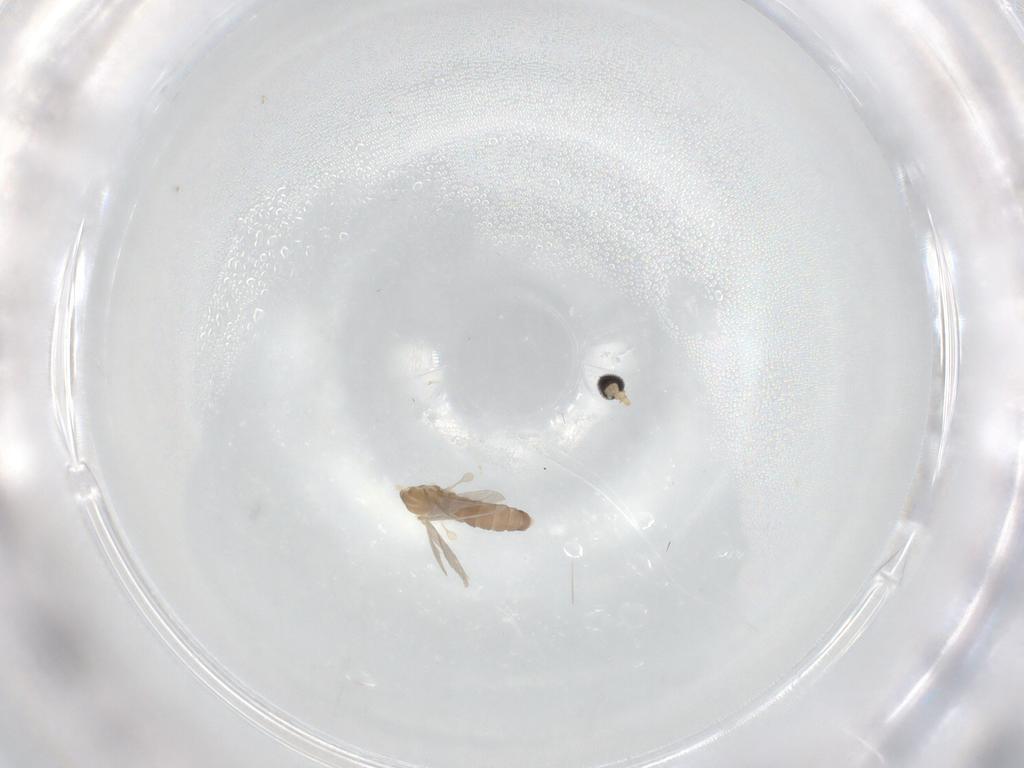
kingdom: Animalia
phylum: Arthropoda
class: Insecta
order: Diptera
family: Cecidomyiidae
